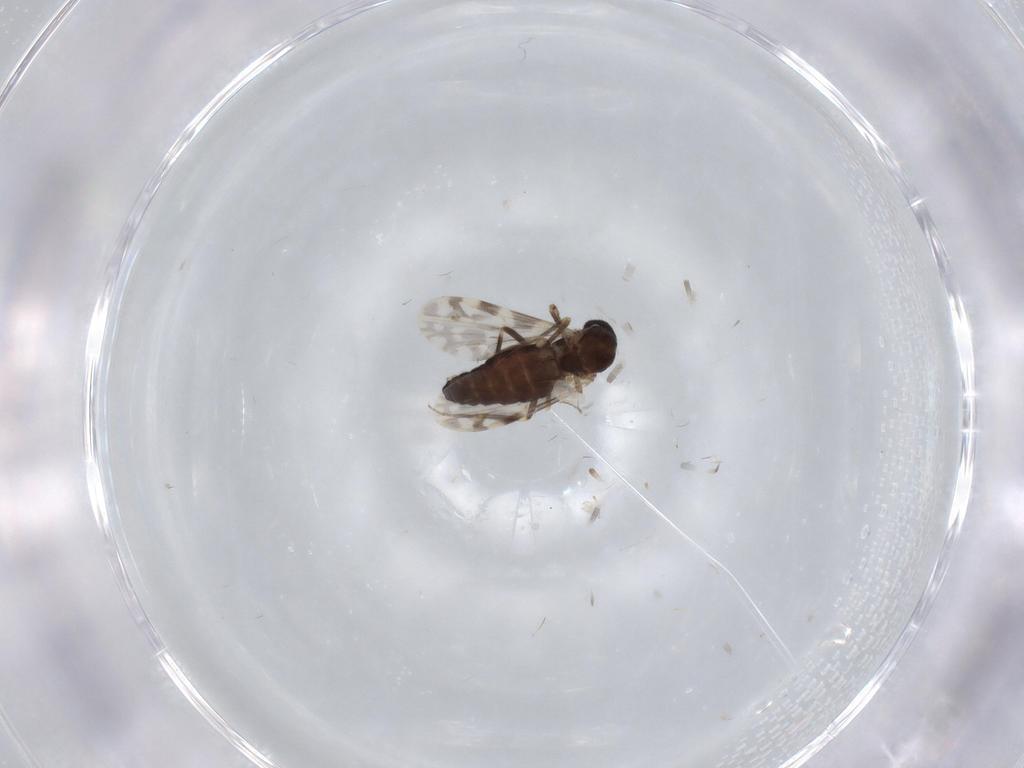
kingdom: Animalia
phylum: Arthropoda
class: Insecta
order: Diptera
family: Ceratopogonidae
